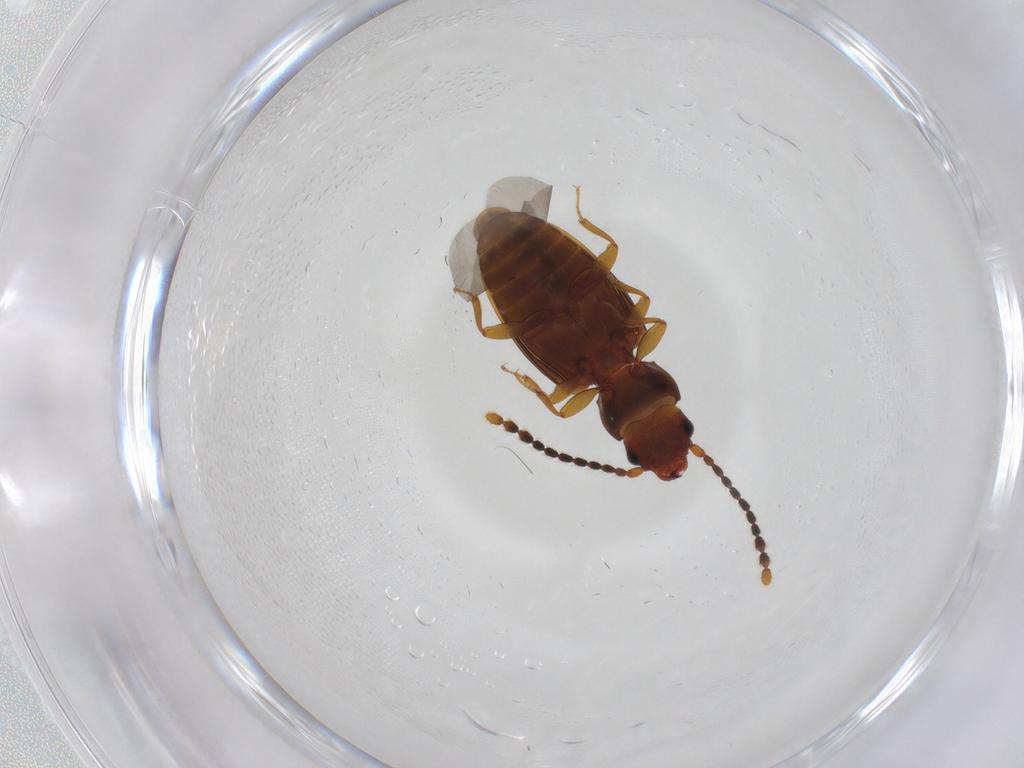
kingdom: Animalia
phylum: Arthropoda
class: Insecta
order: Coleoptera
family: Laemophloeidae
